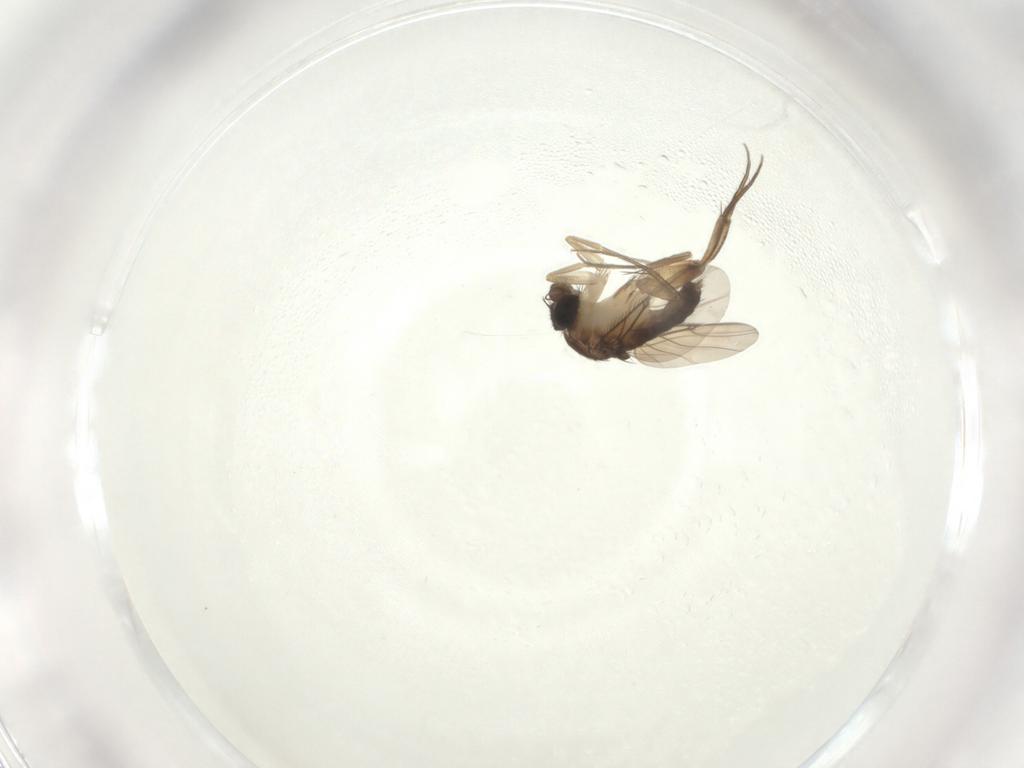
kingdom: Animalia
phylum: Arthropoda
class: Insecta
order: Diptera
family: Phoridae
